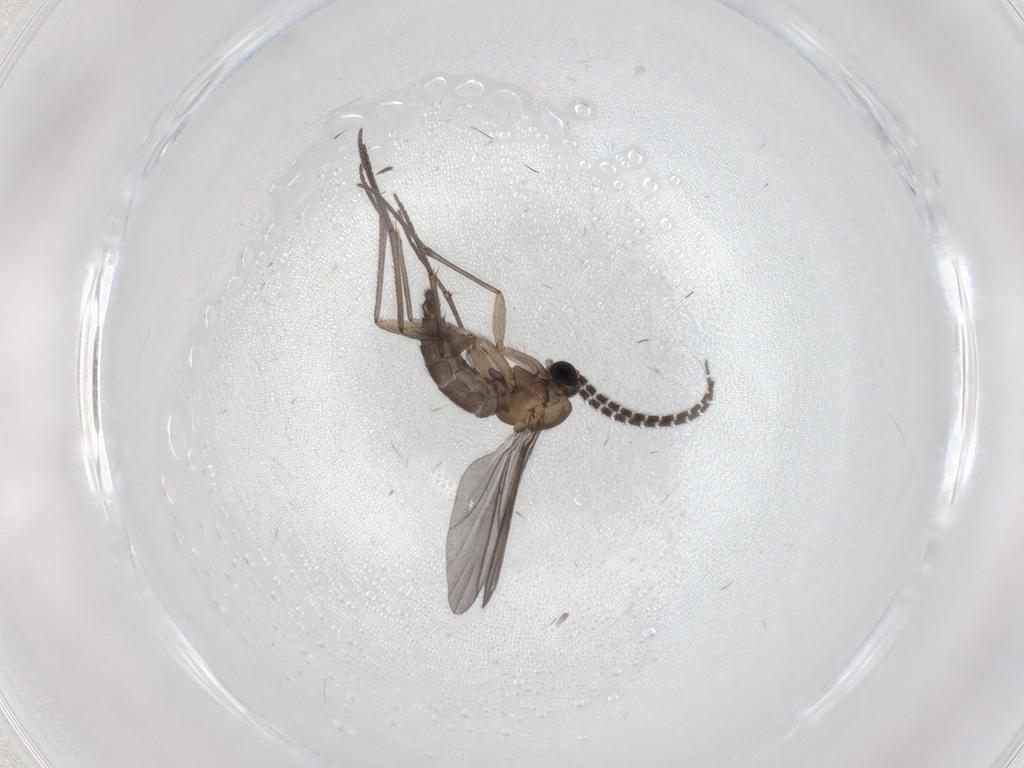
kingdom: Animalia
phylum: Arthropoda
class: Insecta
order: Diptera
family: Sciaridae
